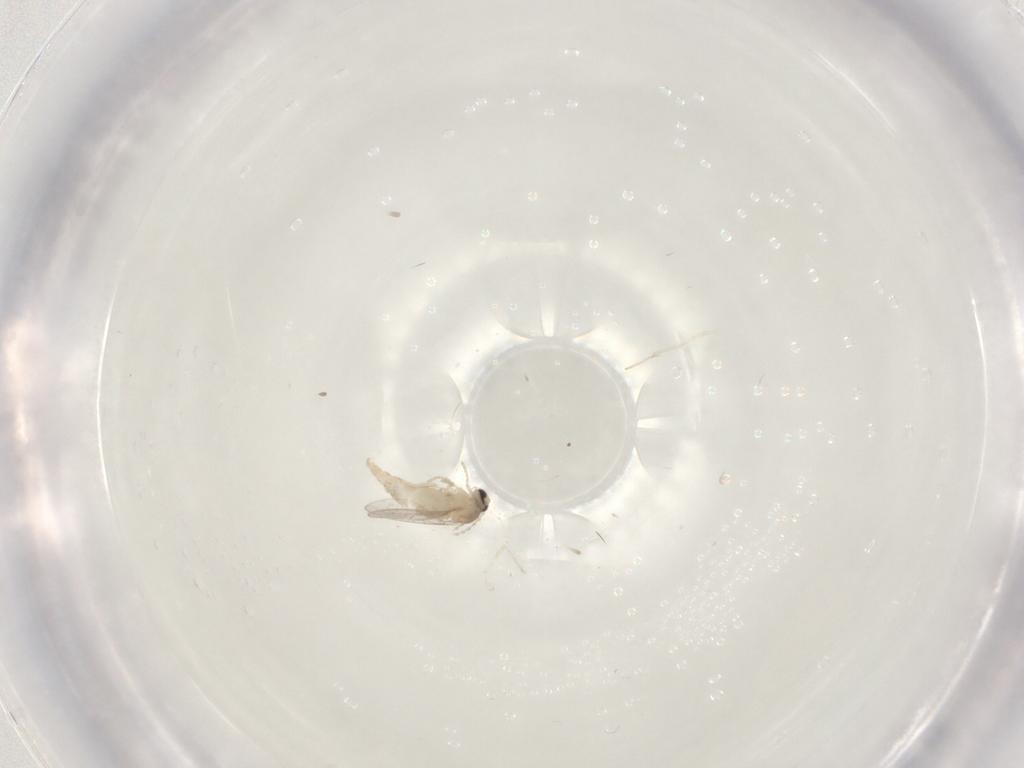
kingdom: Animalia
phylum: Arthropoda
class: Insecta
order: Diptera
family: Cecidomyiidae
